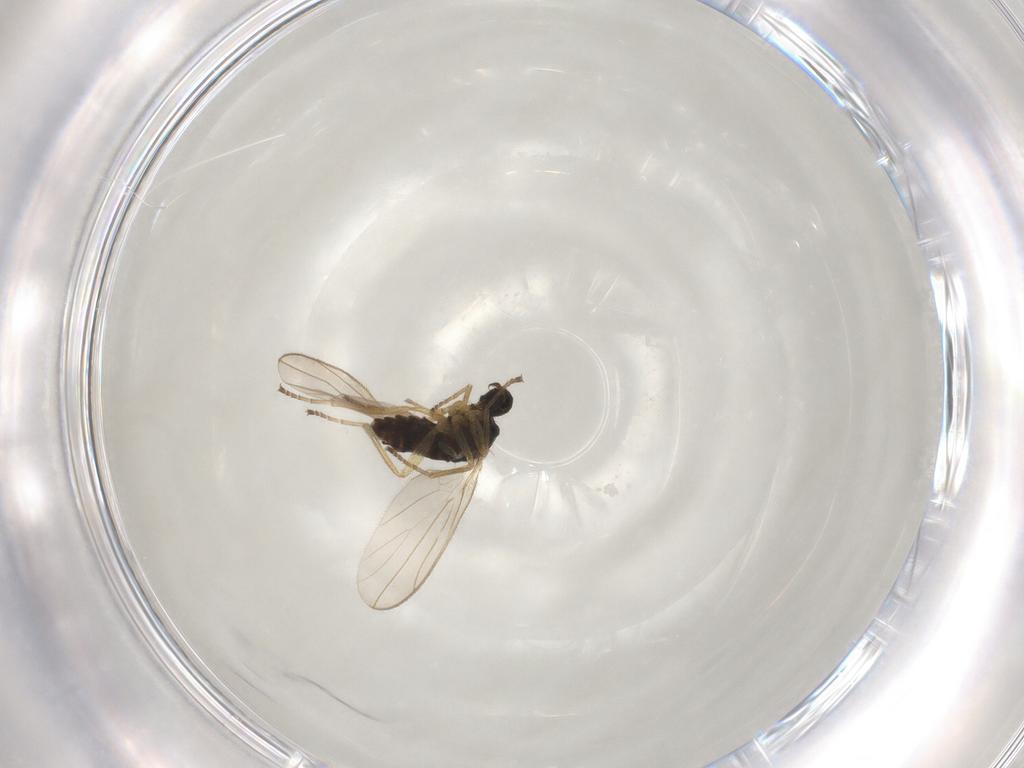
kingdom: Animalia
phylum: Arthropoda
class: Insecta
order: Diptera
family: Hybotidae
